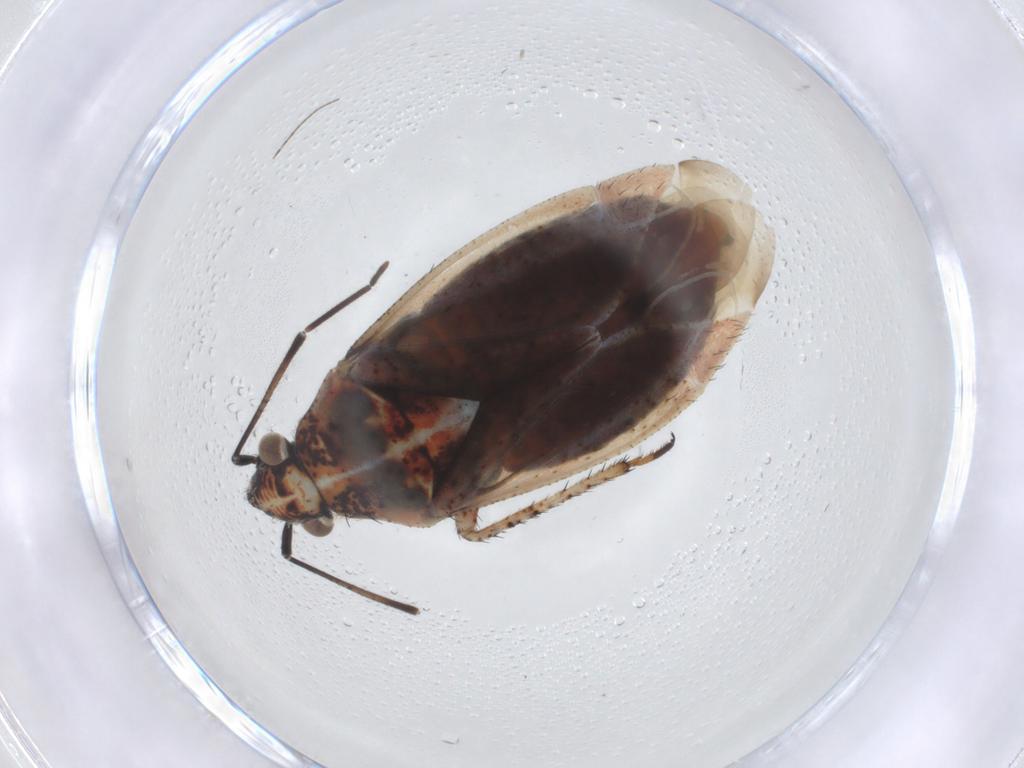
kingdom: Animalia
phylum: Arthropoda
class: Insecta
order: Hemiptera
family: Miridae
